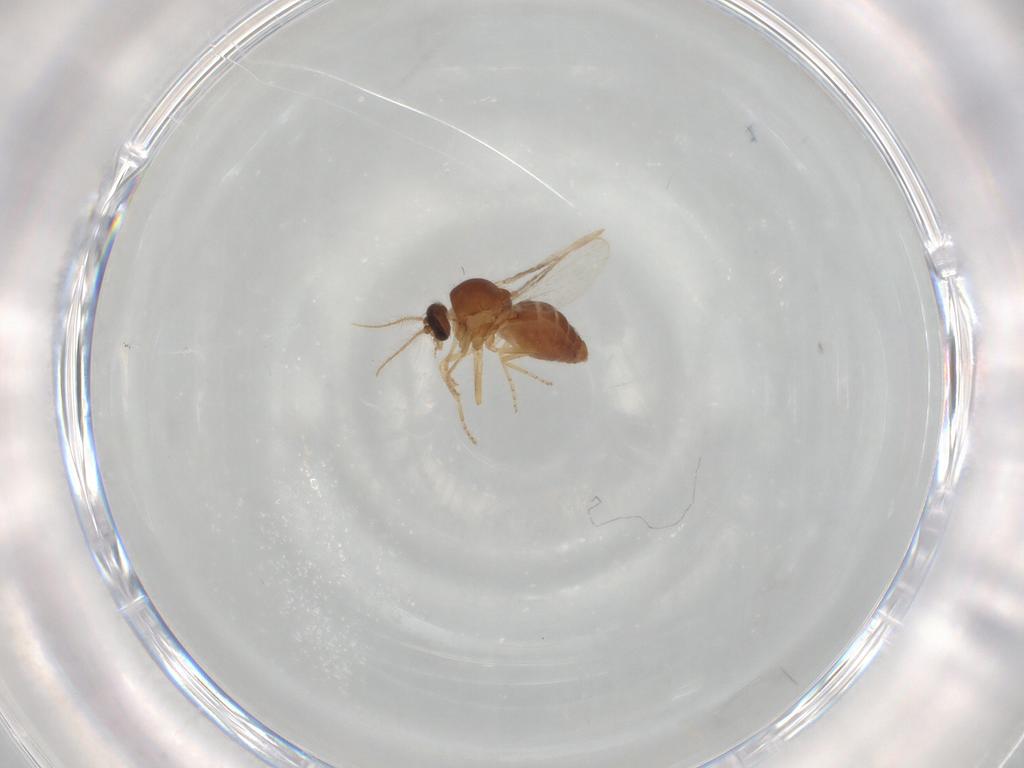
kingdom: Animalia
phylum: Arthropoda
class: Insecta
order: Diptera
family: Ceratopogonidae
